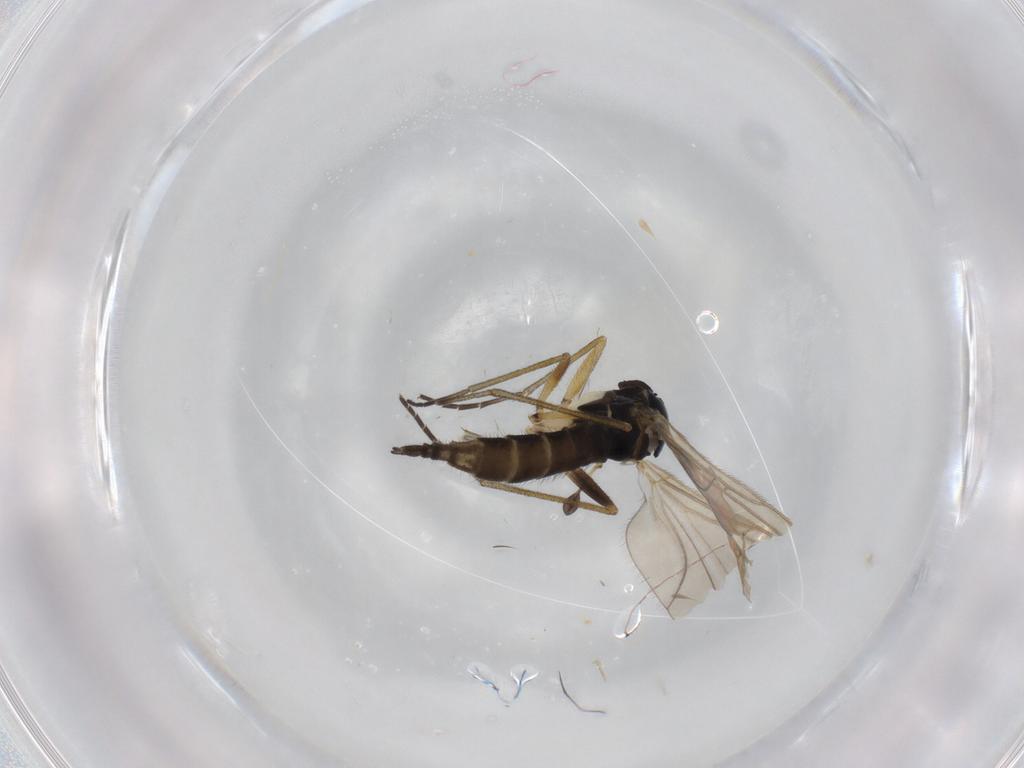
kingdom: Animalia
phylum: Arthropoda
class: Insecta
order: Diptera
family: Sciaridae
